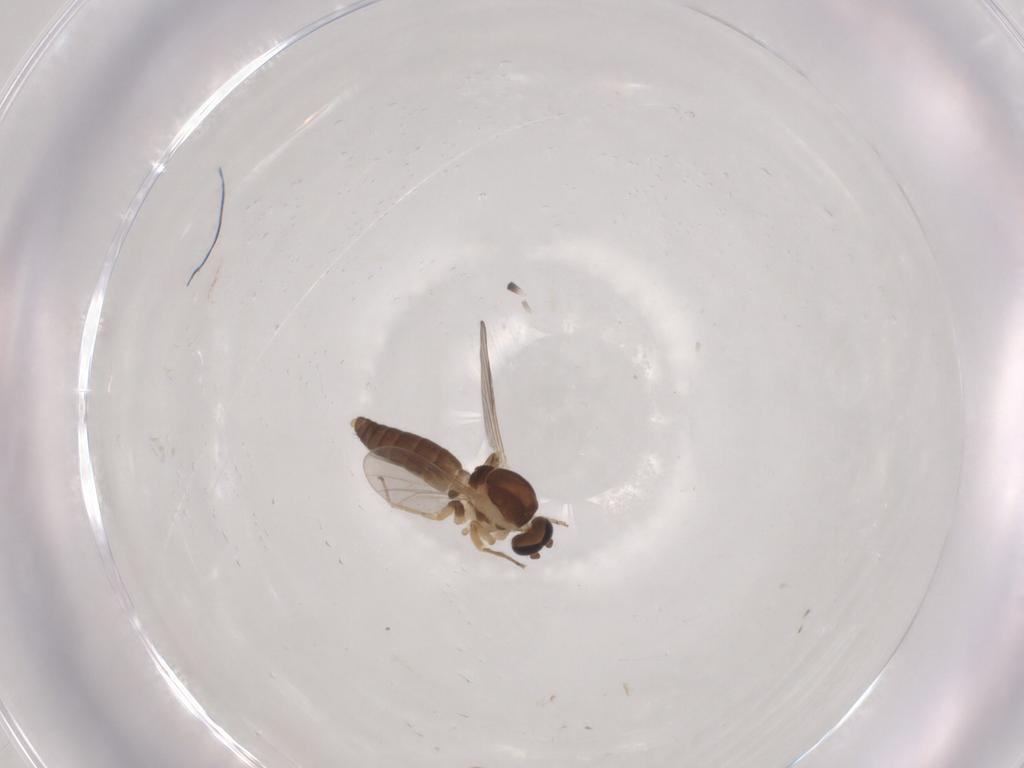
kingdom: Animalia
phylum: Arthropoda
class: Insecta
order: Diptera
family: Ceratopogonidae
